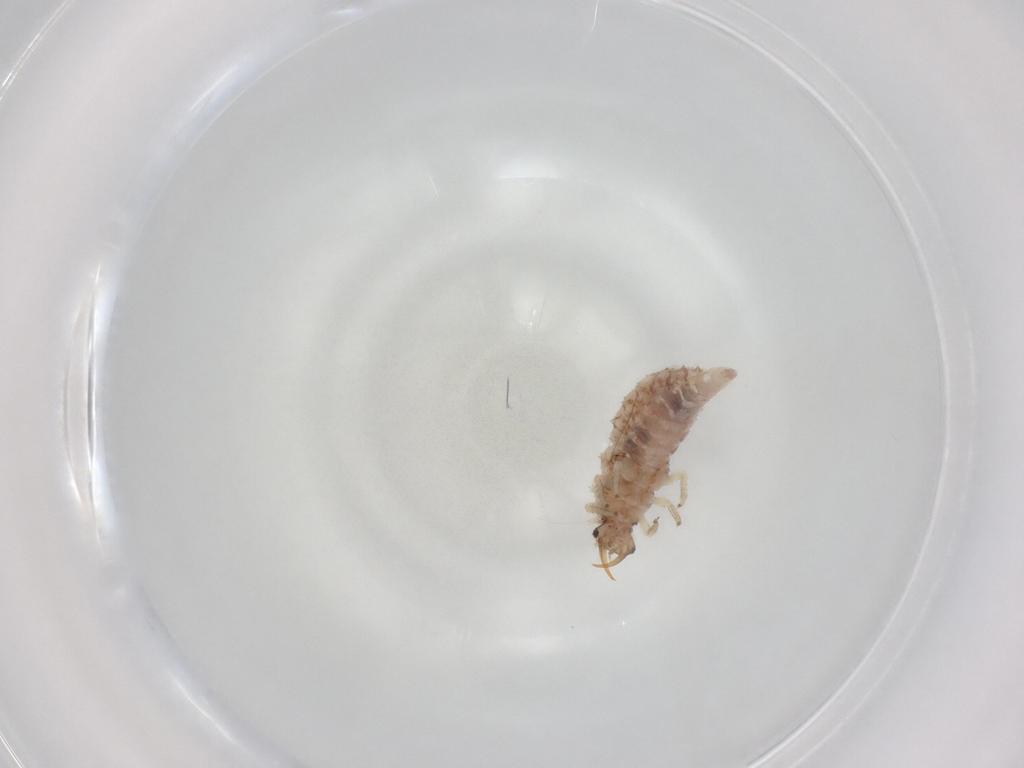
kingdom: Animalia
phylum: Arthropoda
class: Insecta
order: Neuroptera
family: Chrysopidae
